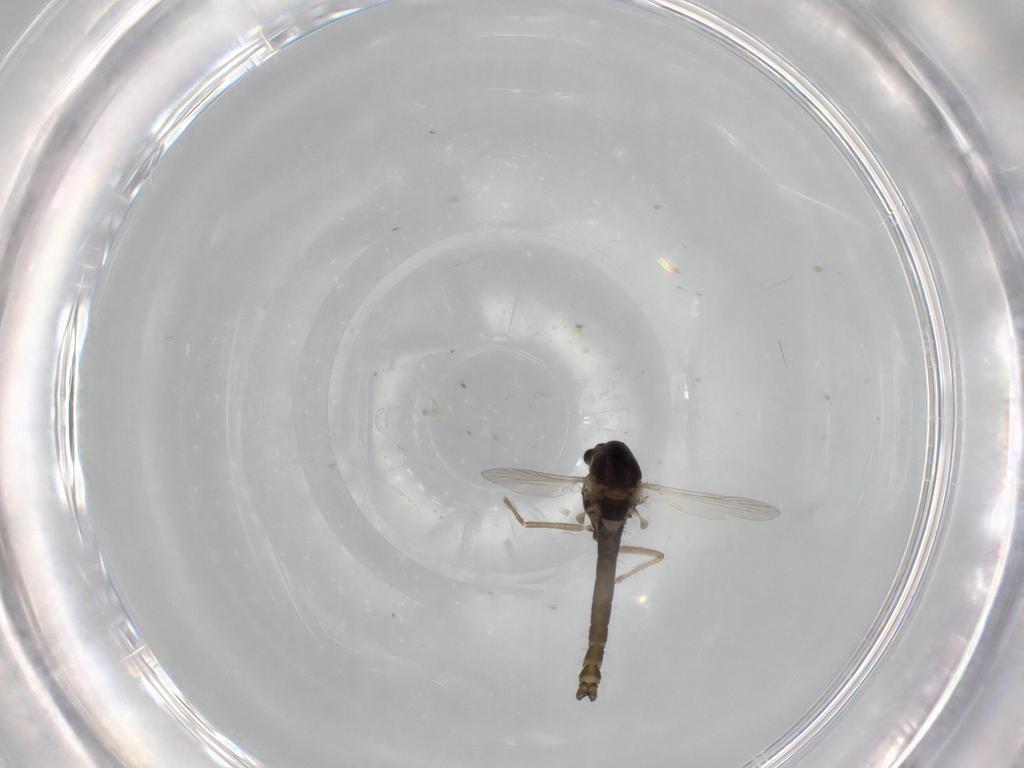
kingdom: Animalia
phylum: Arthropoda
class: Insecta
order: Diptera
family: Chironomidae
